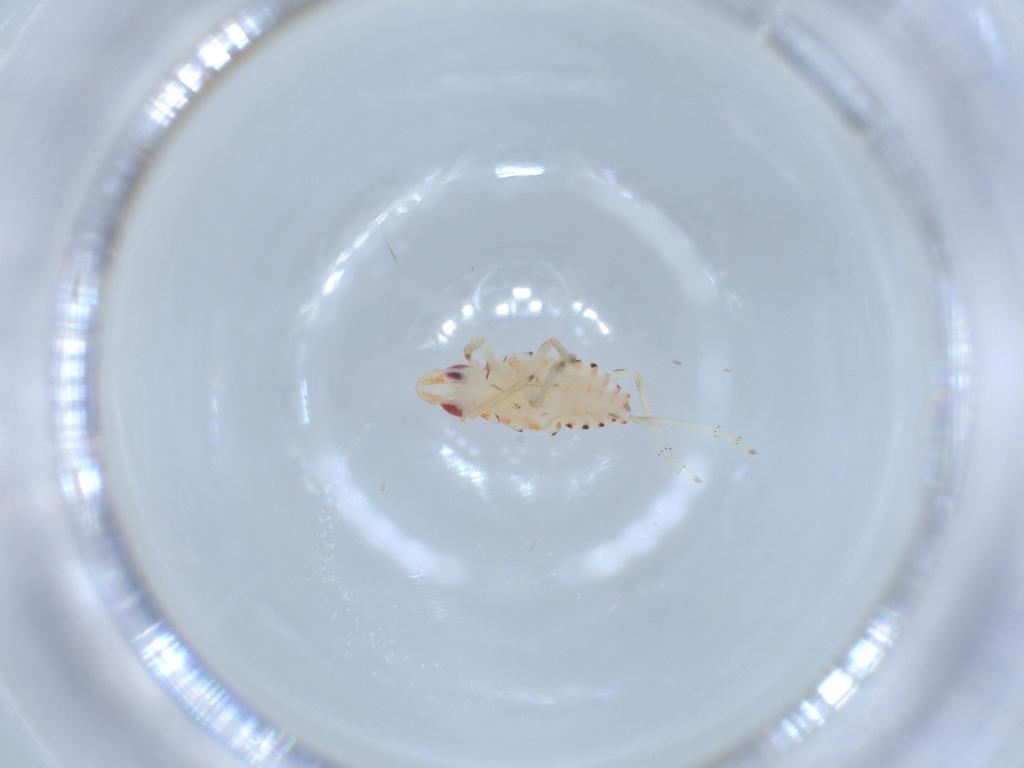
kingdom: Animalia
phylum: Arthropoda
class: Insecta
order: Hemiptera
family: Tropiduchidae
